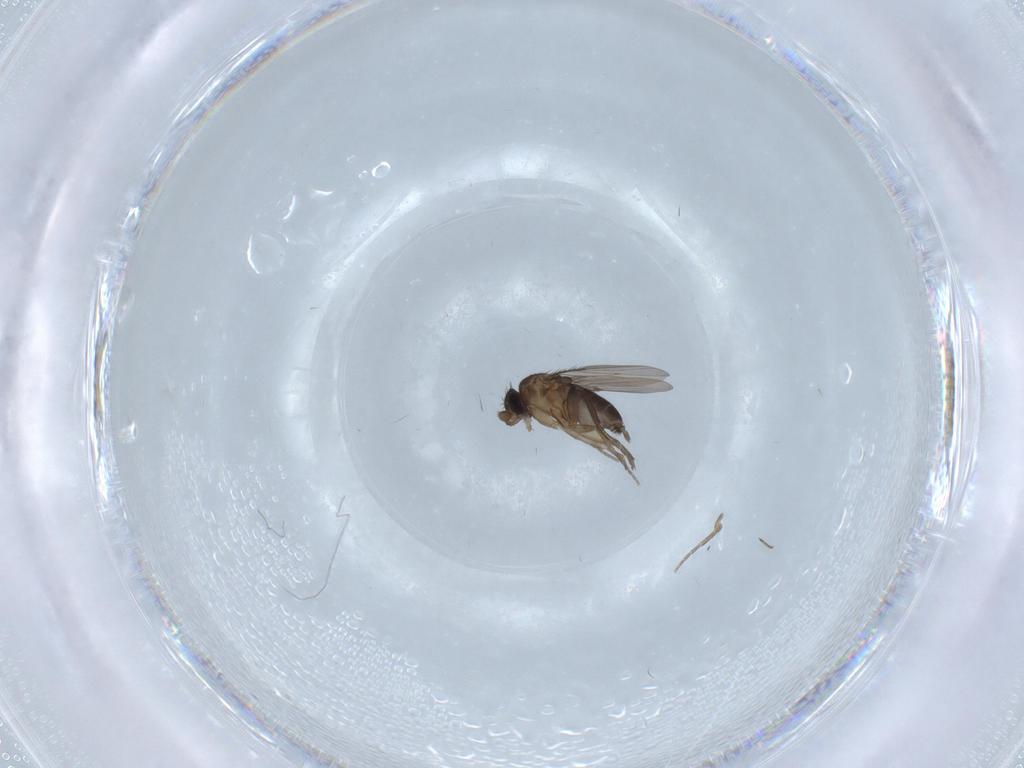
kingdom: Animalia
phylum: Arthropoda
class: Insecta
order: Diptera
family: Phoridae
